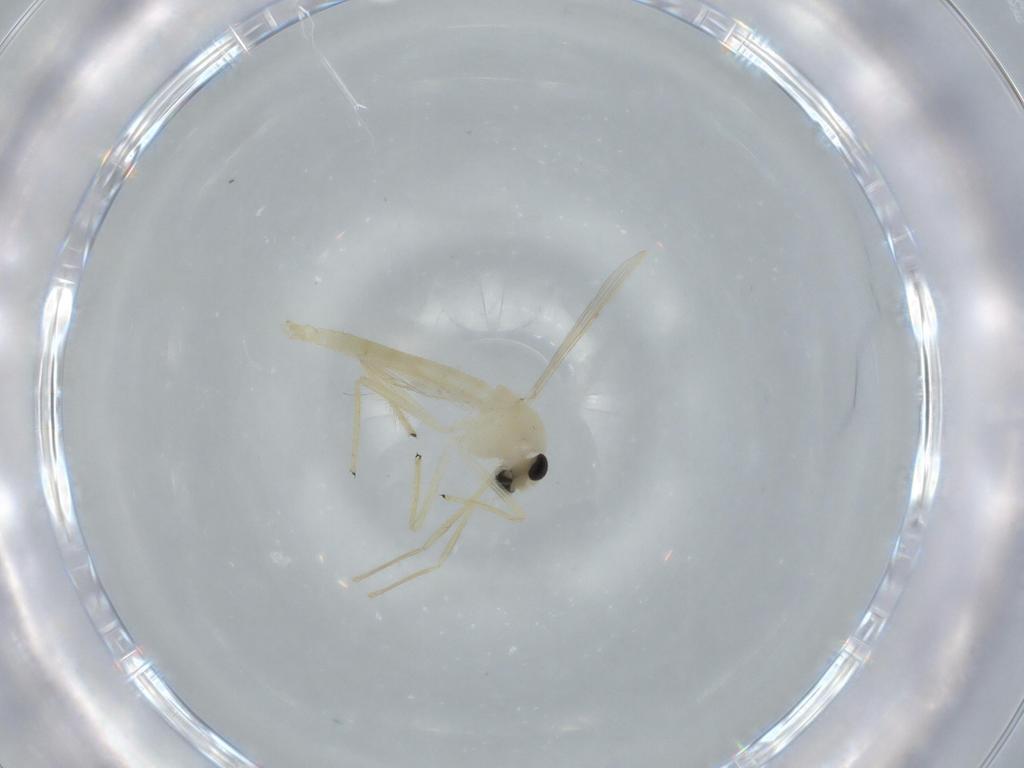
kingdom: Animalia
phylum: Arthropoda
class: Insecta
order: Diptera
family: Chironomidae
